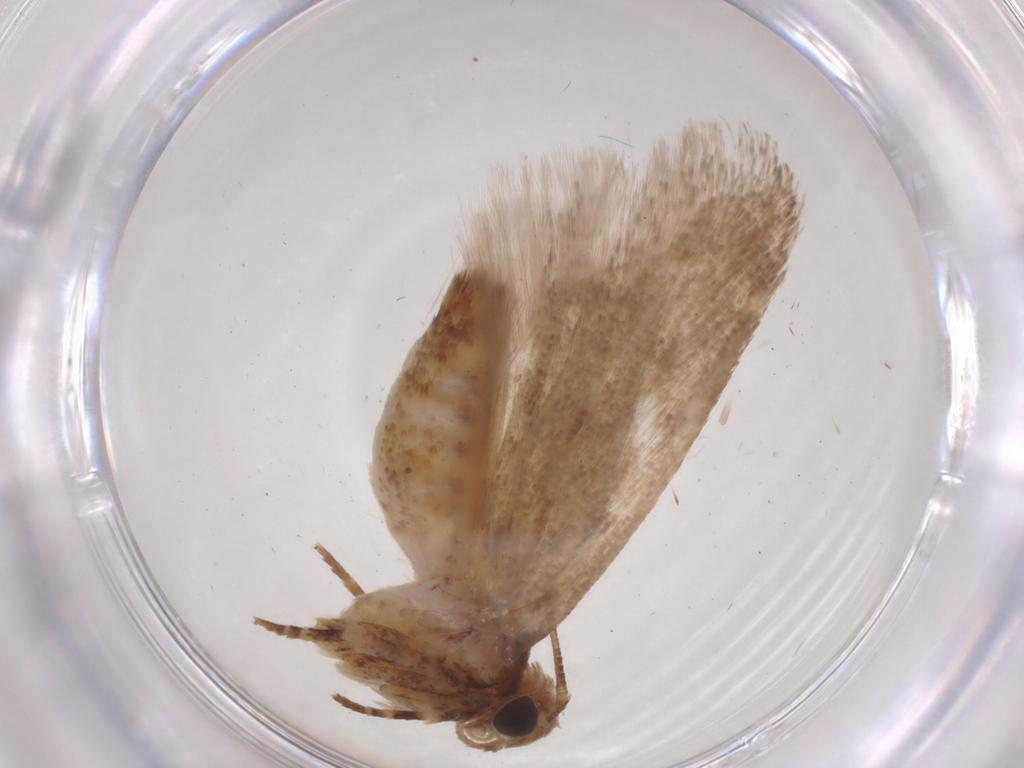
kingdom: Animalia
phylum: Arthropoda
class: Insecta
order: Lepidoptera
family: Gelechiidae
